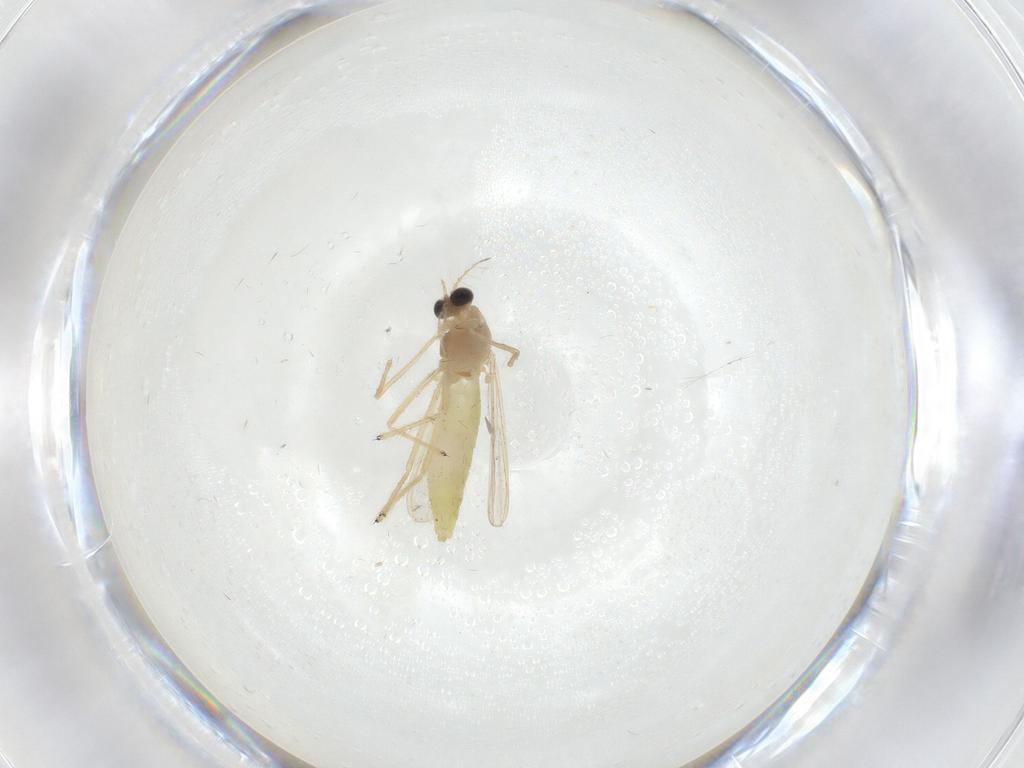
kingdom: Animalia
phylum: Arthropoda
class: Insecta
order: Diptera
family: Chironomidae
